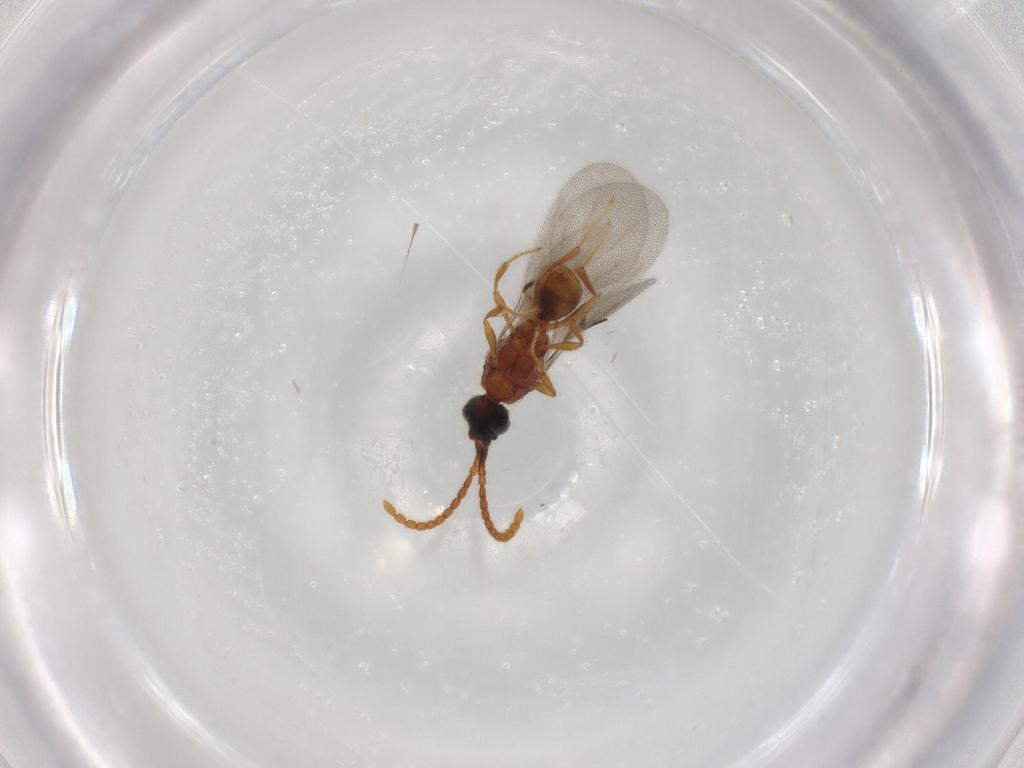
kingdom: Animalia
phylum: Arthropoda
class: Insecta
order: Hymenoptera
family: Diapriidae
